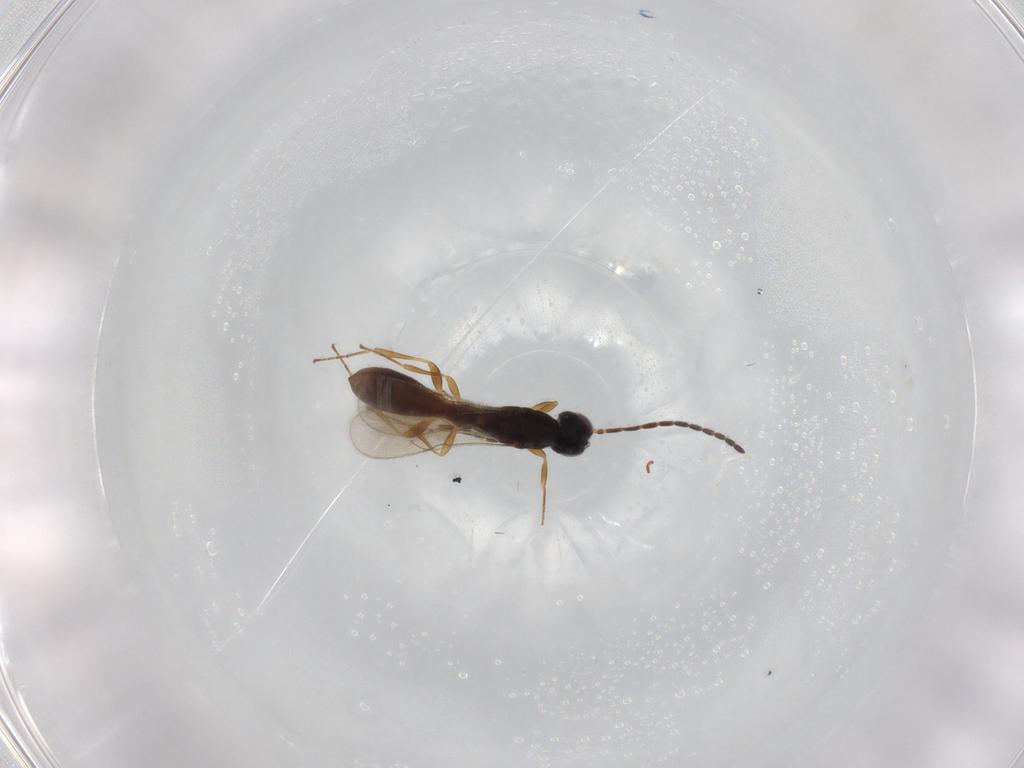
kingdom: Animalia
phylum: Arthropoda
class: Insecta
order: Hymenoptera
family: Scelionidae
